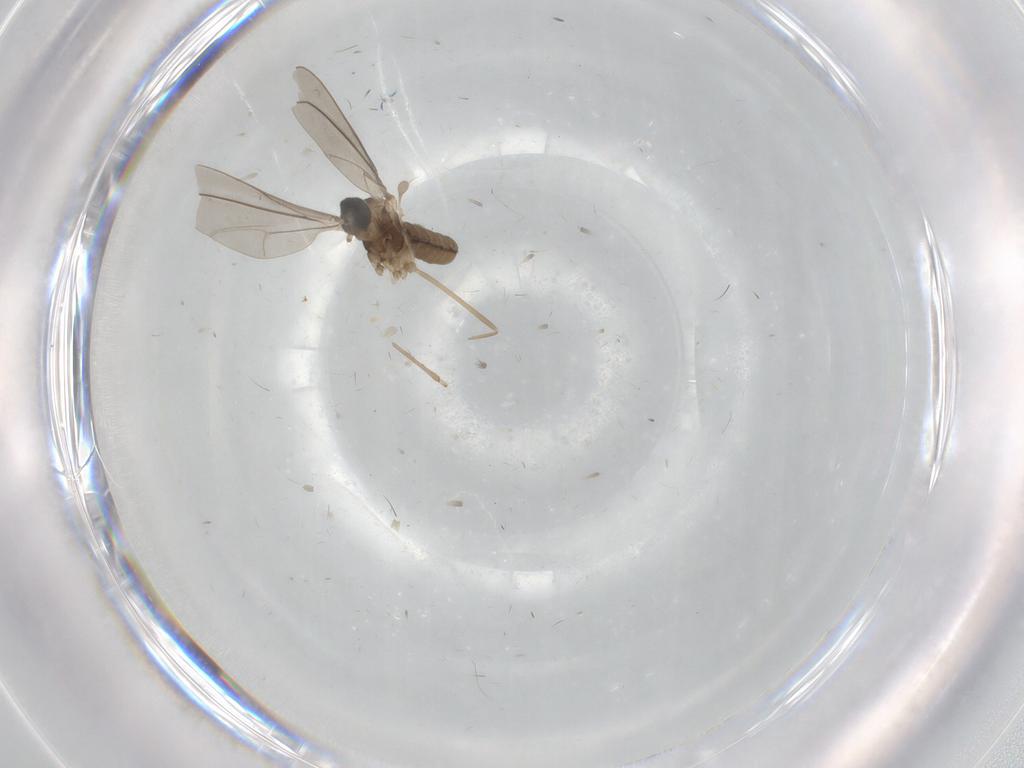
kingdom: Animalia
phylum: Arthropoda
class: Insecta
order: Diptera
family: Cecidomyiidae
